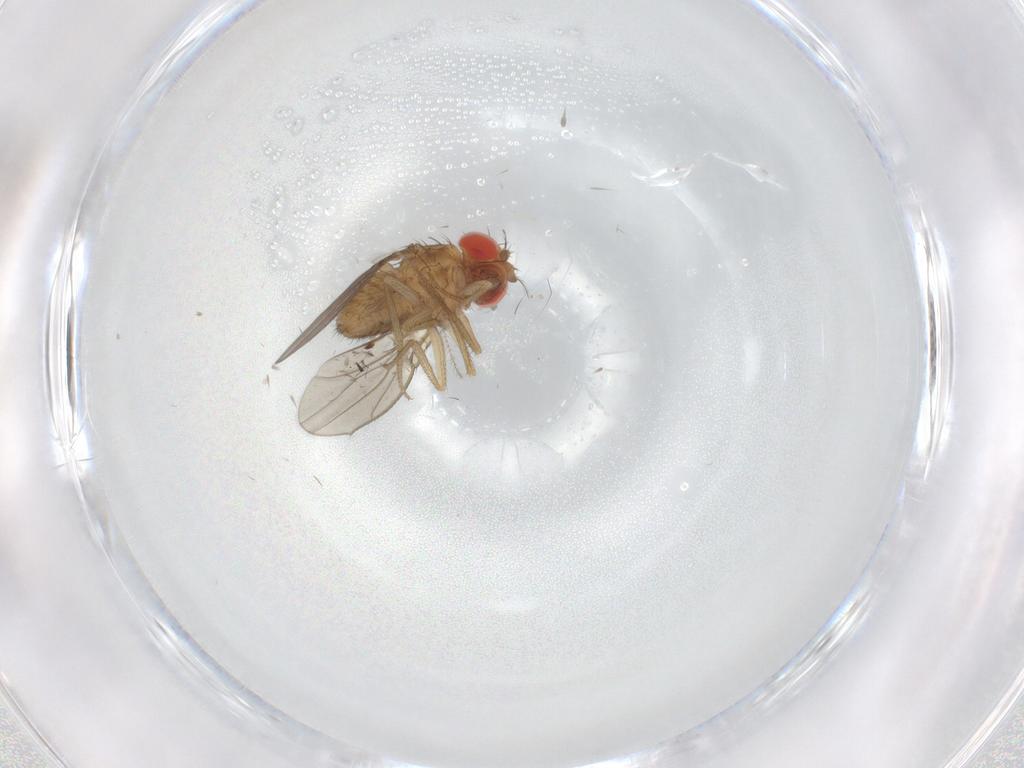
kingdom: Animalia
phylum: Arthropoda
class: Insecta
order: Diptera
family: Drosophilidae
